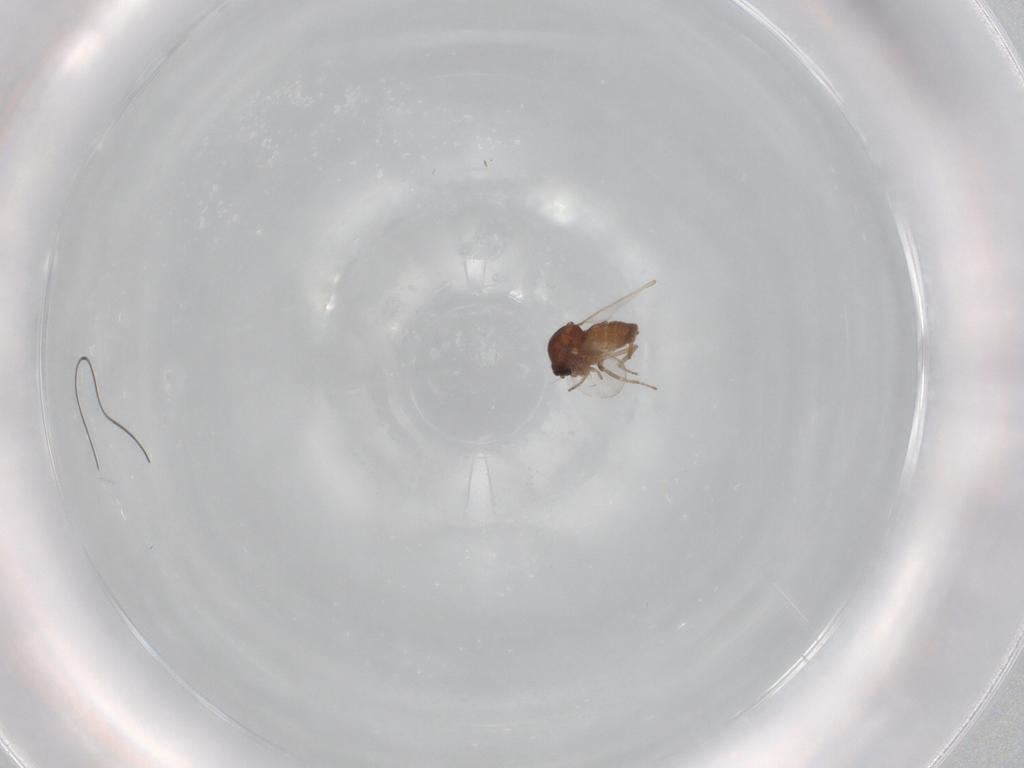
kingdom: Animalia
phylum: Arthropoda
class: Insecta
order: Diptera
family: Ceratopogonidae
